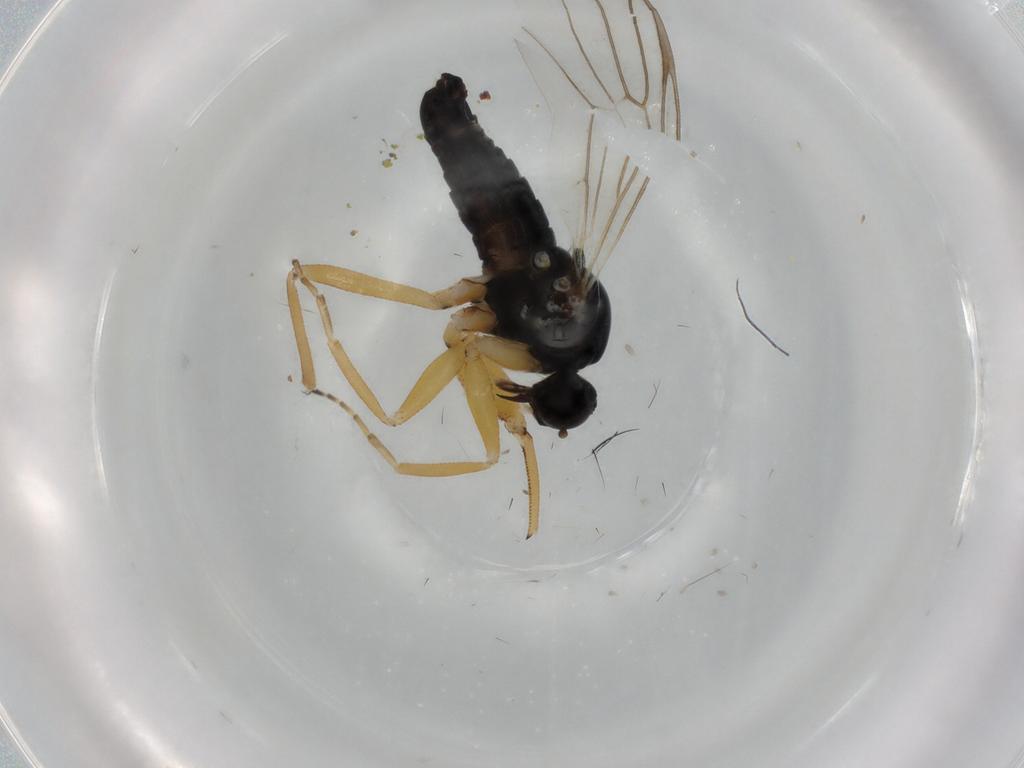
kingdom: Animalia
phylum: Arthropoda
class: Insecta
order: Diptera
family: Chloropidae
